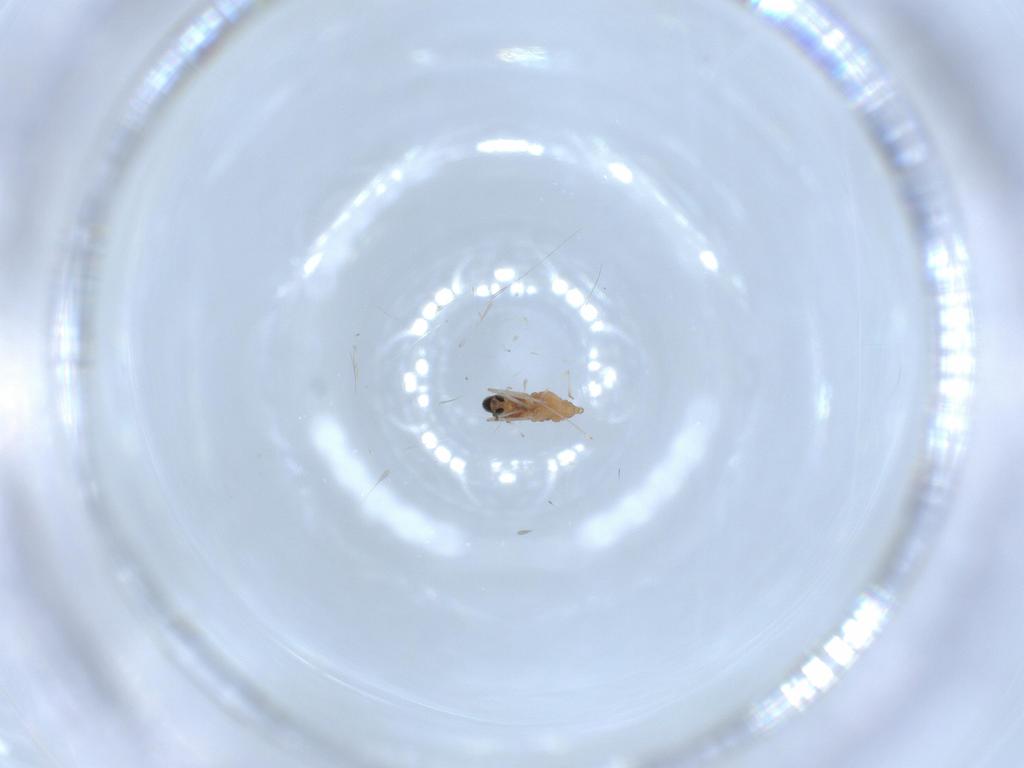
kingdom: Animalia
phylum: Arthropoda
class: Insecta
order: Diptera
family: Cecidomyiidae
